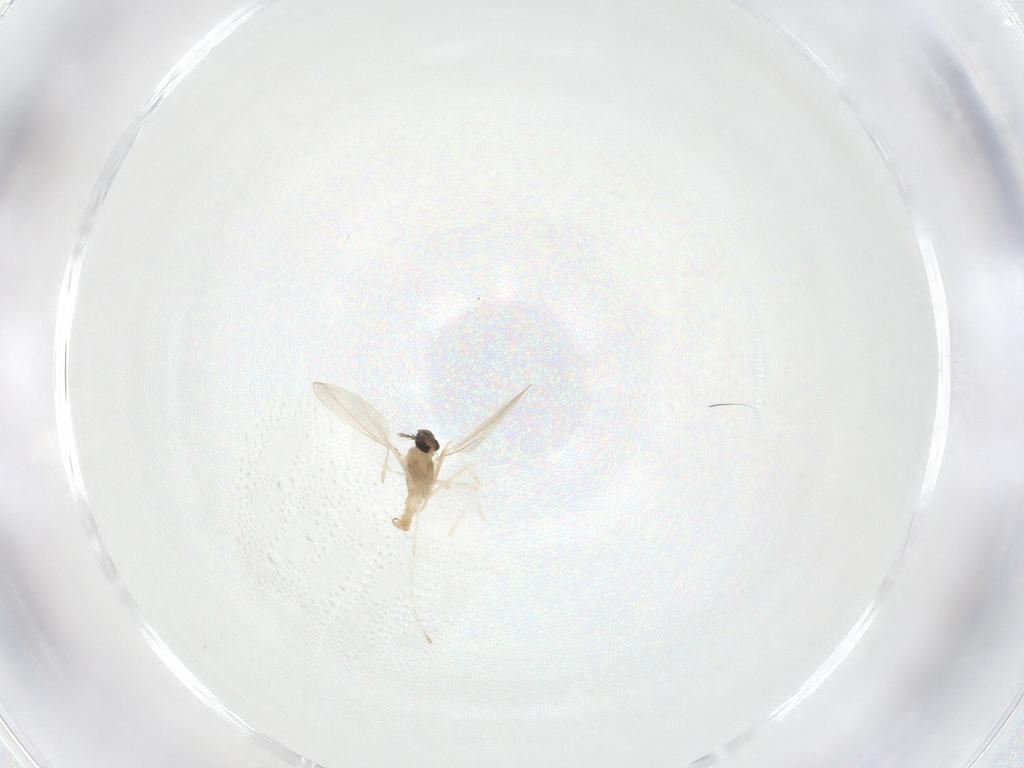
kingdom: Animalia
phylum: Arthropoda
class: Insecta
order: Diptera
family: Cecidomyiidae
